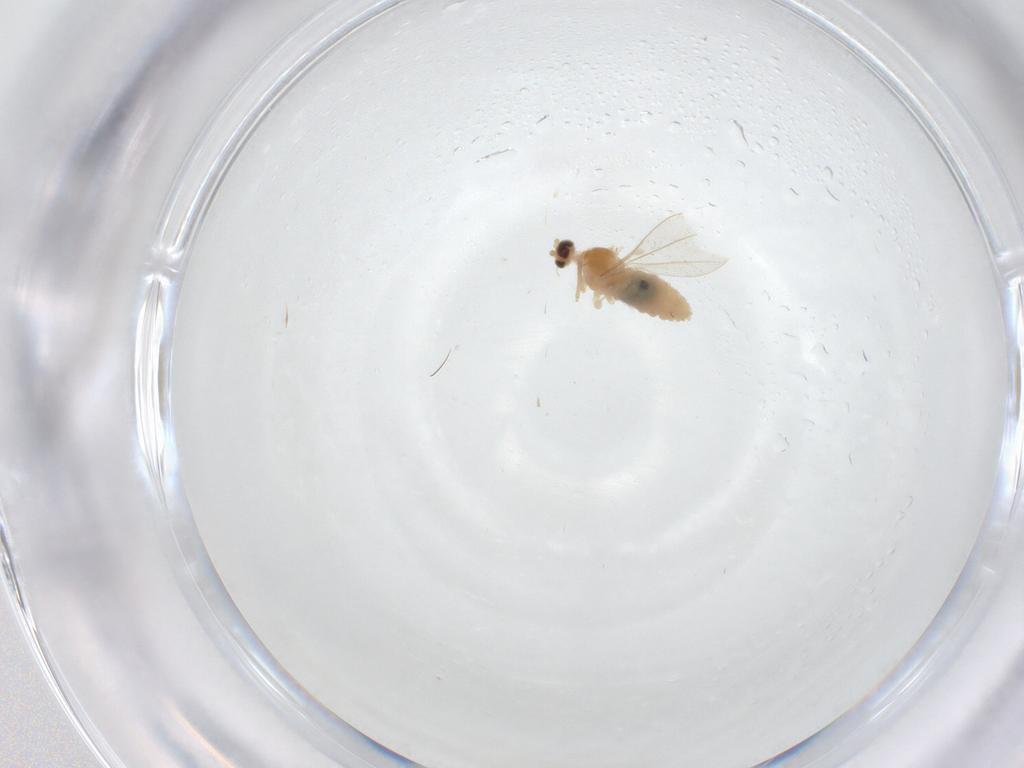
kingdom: Animalia
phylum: Arthropoda
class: Insecta
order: Diptera
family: Cecidomyiidae
